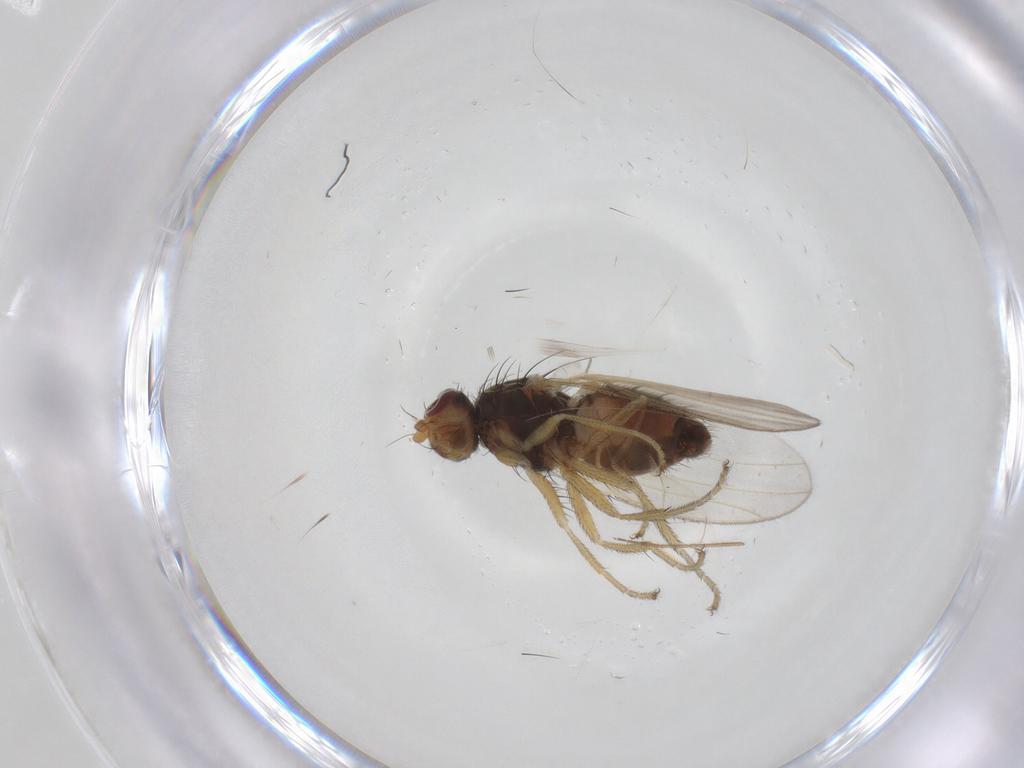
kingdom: Animalia
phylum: Arthropoda
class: Insecta
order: Diptera
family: Heleomyzidae
